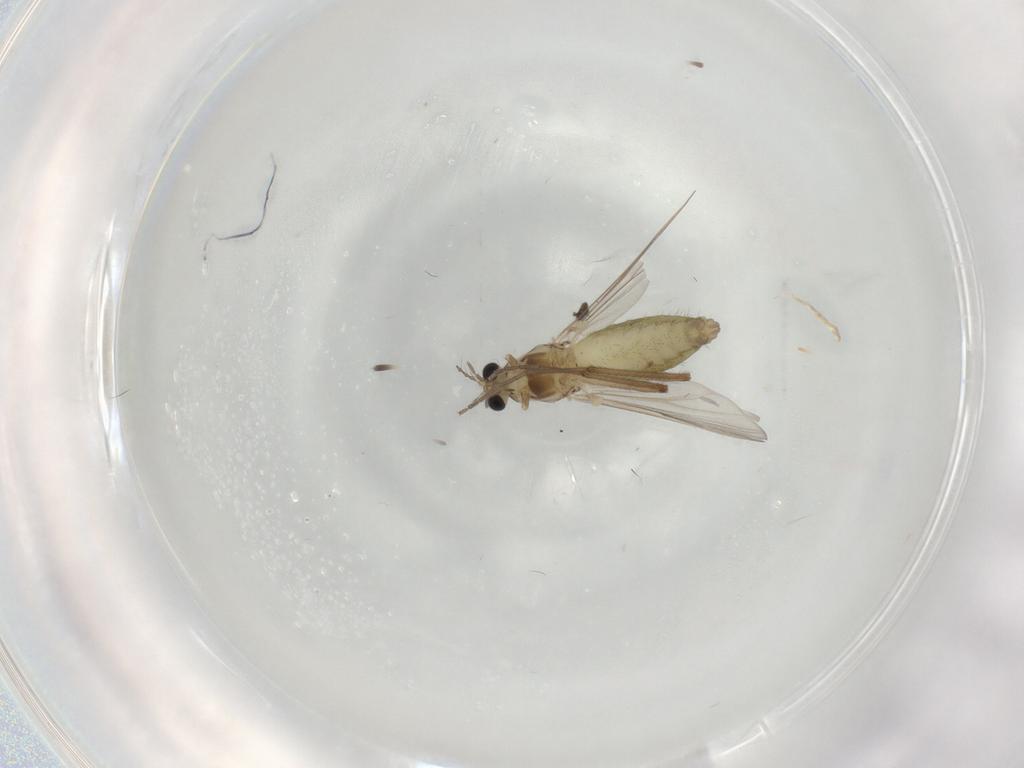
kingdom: Animalia
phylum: Arthropoda
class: Insecta
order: Diptera
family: Chironomidae
